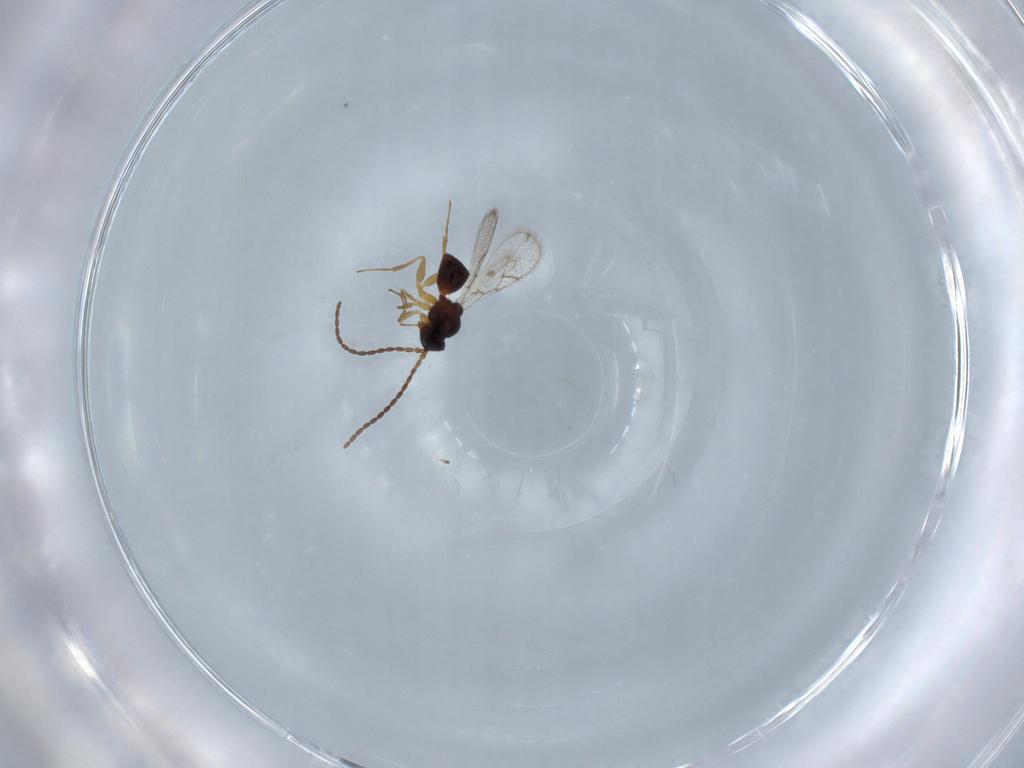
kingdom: Animalia
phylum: Arthropoda
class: Insecta
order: Hymenoptera
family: Figitidae
